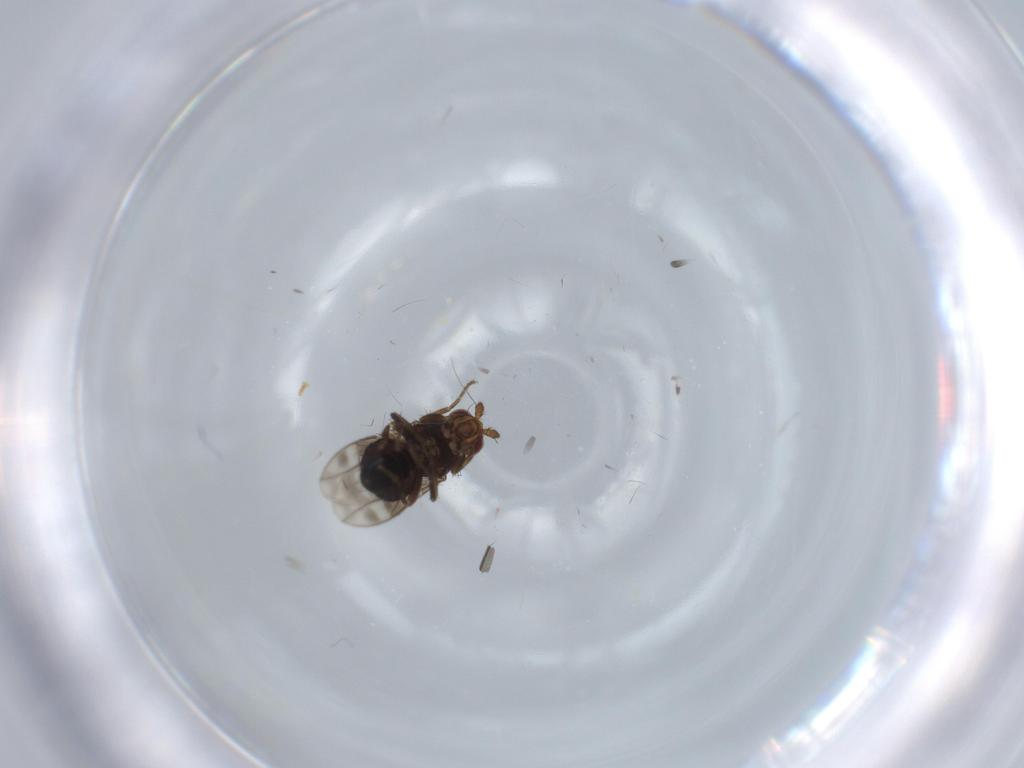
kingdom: Animalia
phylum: Arthropoda
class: Insecta
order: Diptera
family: Sphaeroceridae
